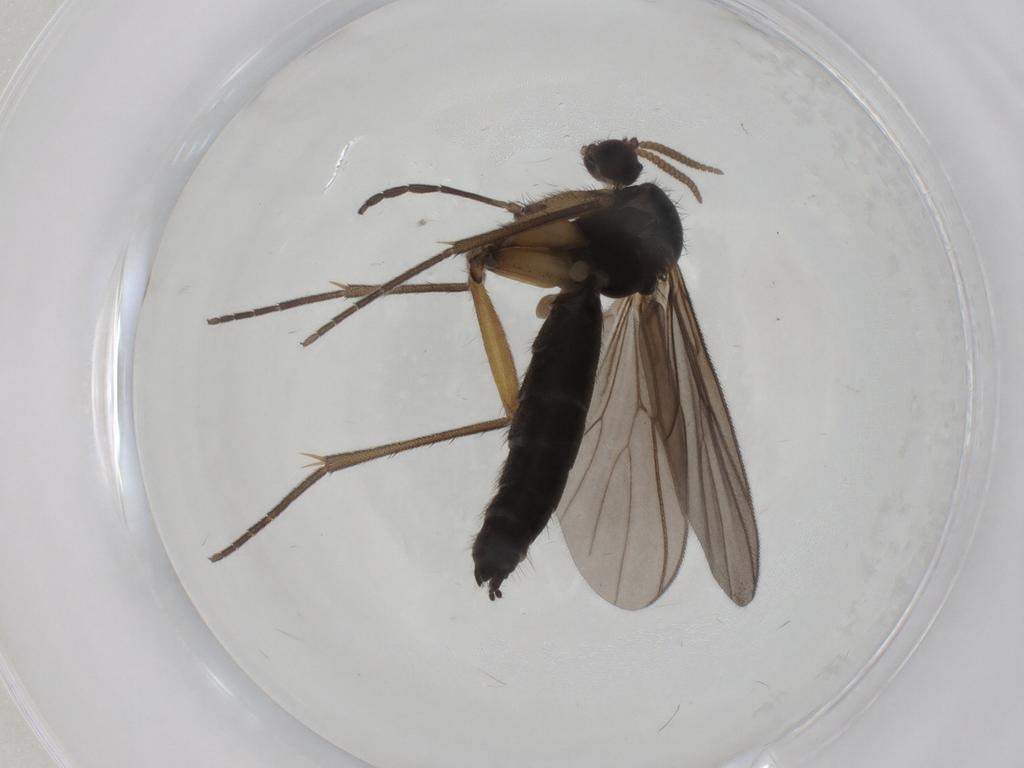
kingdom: Animalia
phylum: Arthropoda
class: Insecta
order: Diptera
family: Mycetophilidae
